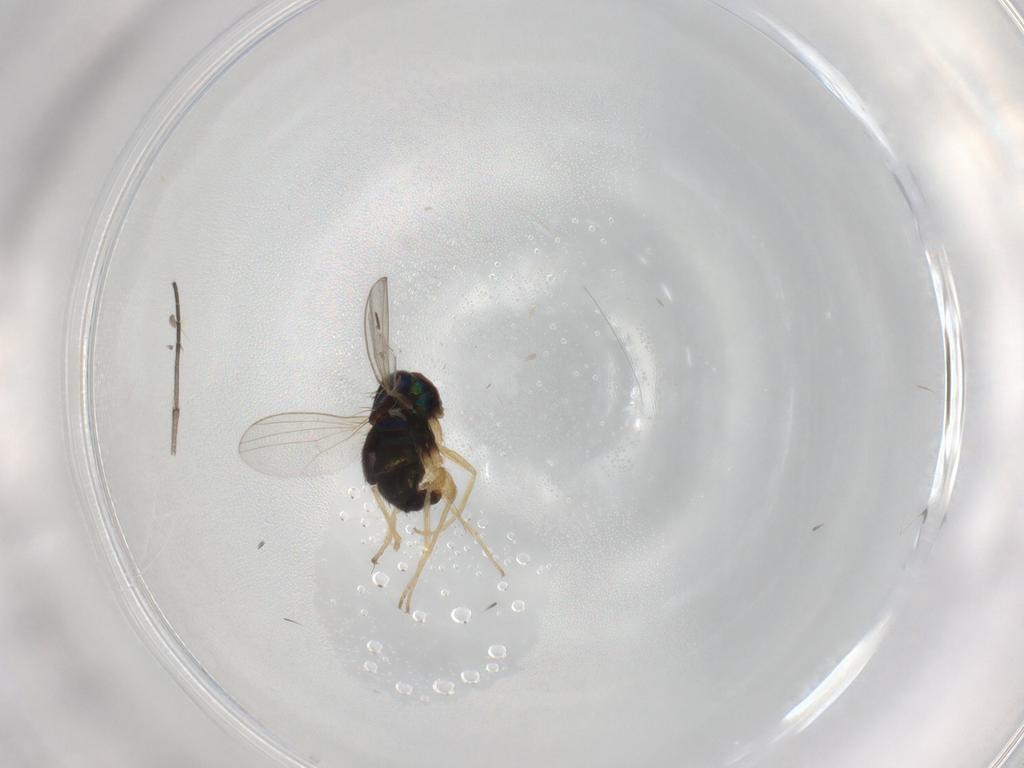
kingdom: Animalia
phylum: Arthropoda
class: Insecta
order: Diptera
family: Dolichopodidae
